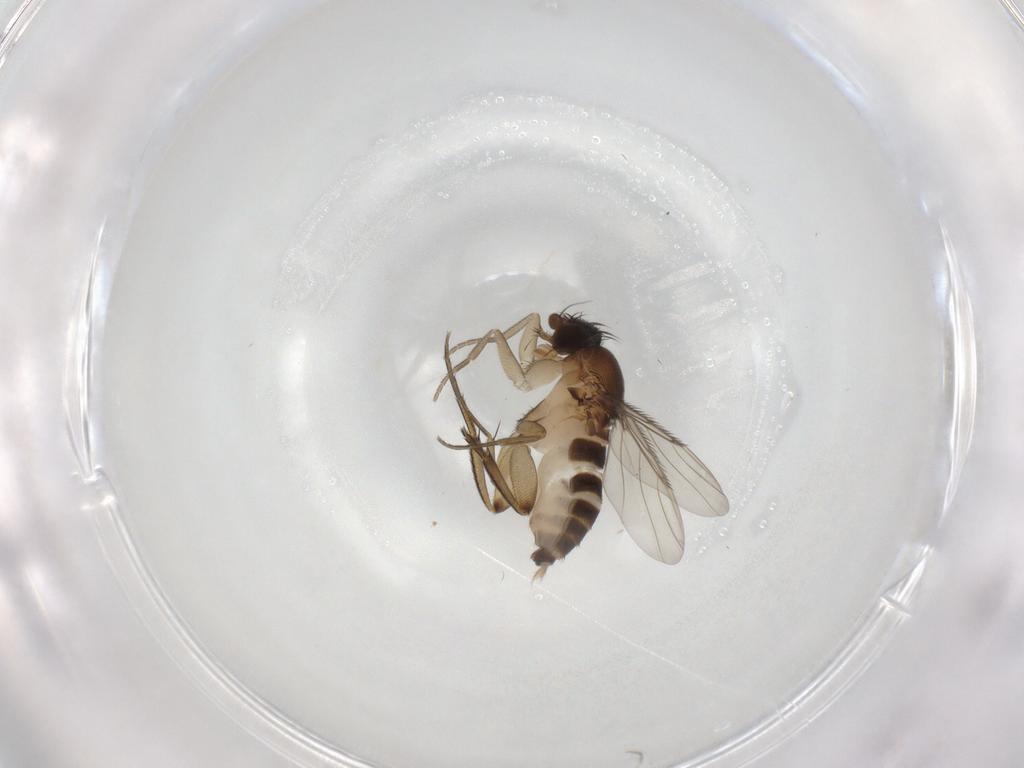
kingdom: Animalia
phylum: Arthropoda
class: Insecta
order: Diptera
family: Phoridae
